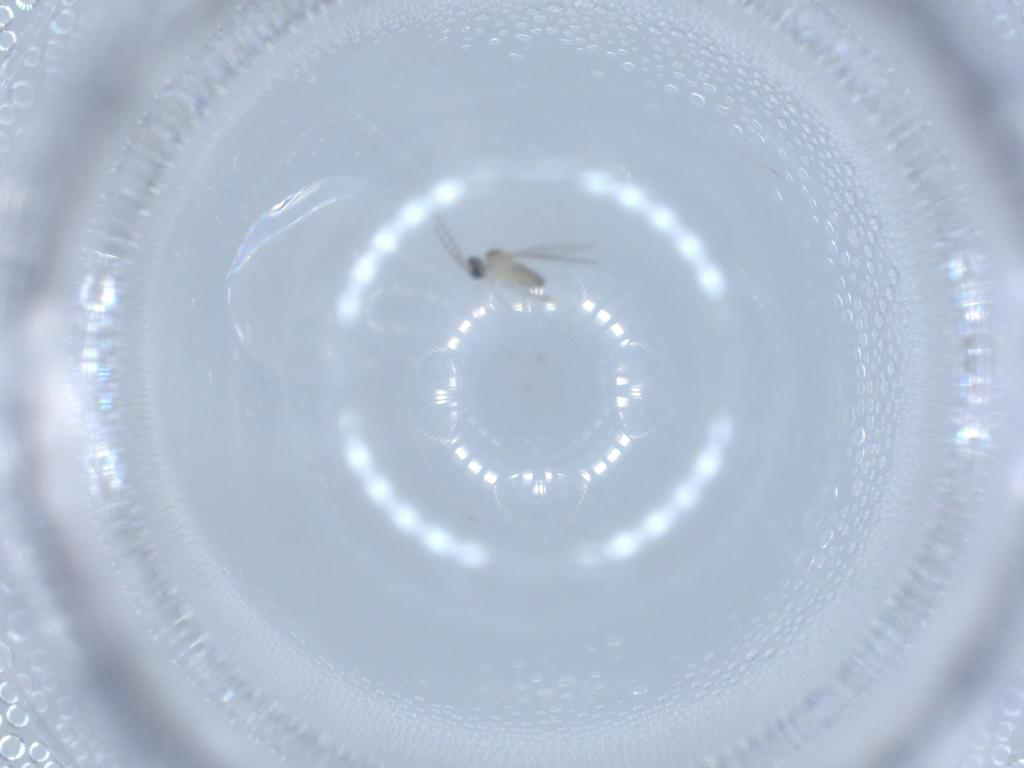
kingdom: Animalia
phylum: Arthropoda
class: Insecta
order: Diptera
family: Cecidomyiidae
